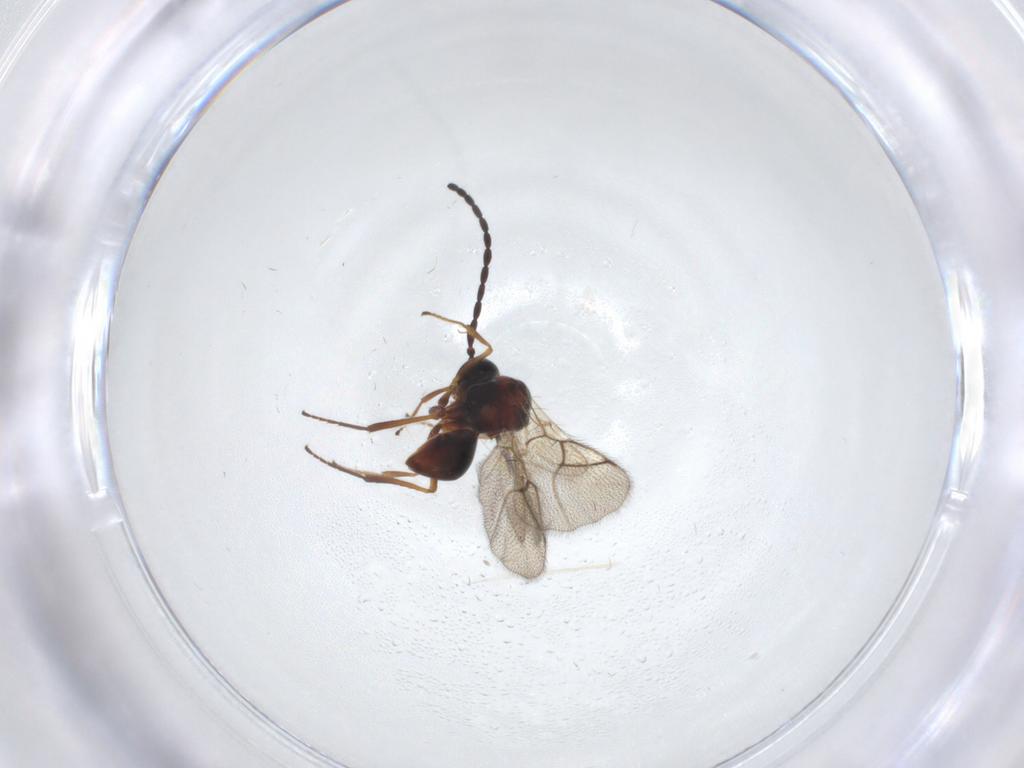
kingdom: Animalia
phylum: Arthropoda
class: Insecta
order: Hymenoptera
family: Figitidae
